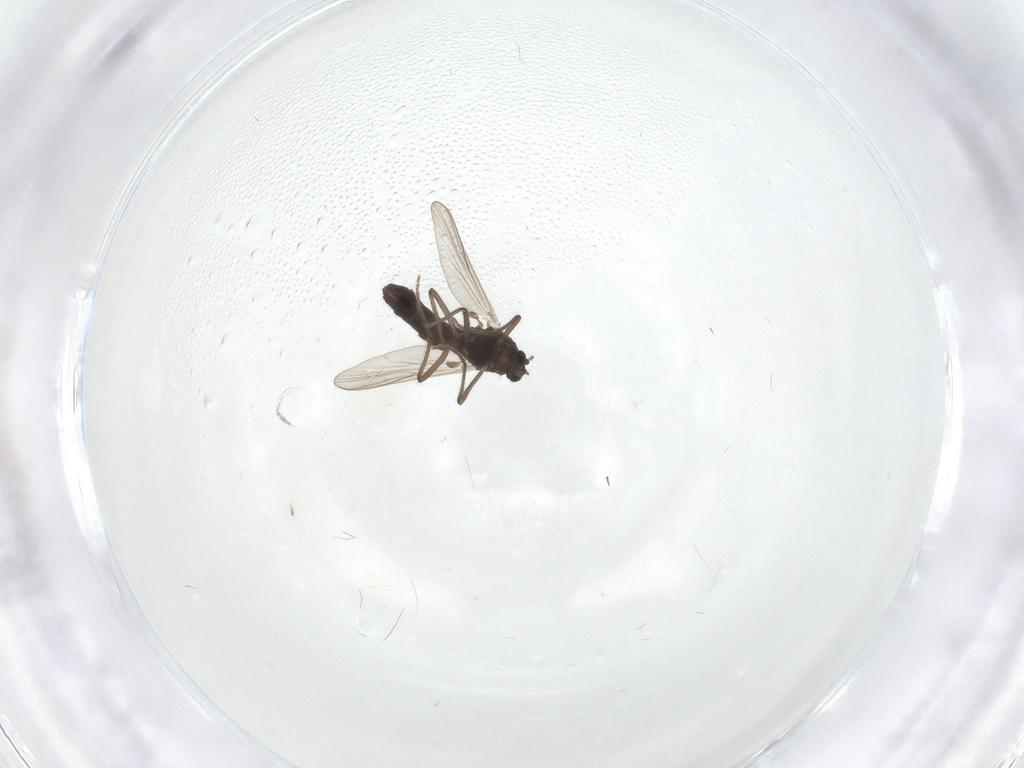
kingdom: Animalia
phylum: Arthropoda
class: Insecta
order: Diptera
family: Chironomidae
